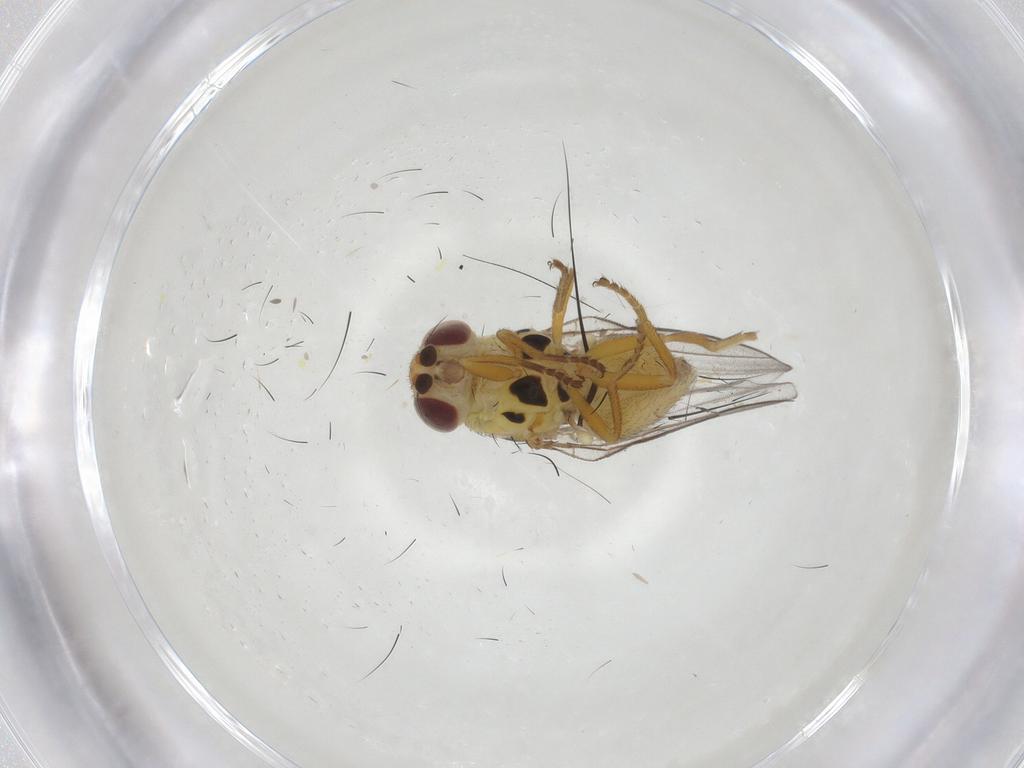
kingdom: Animalia
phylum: Arthropoda
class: Insecta
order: Diptera
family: Chloropidae
